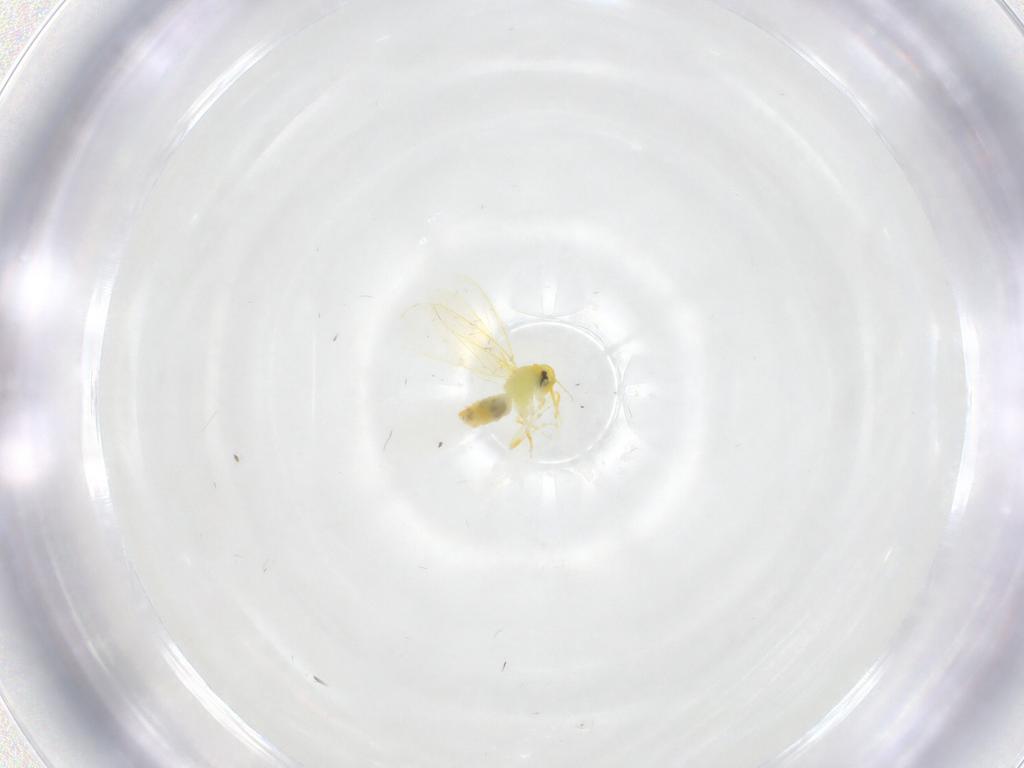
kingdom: Animalia
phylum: Arthropoda
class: Insecta
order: Hemiptera
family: Aleyrodidae
